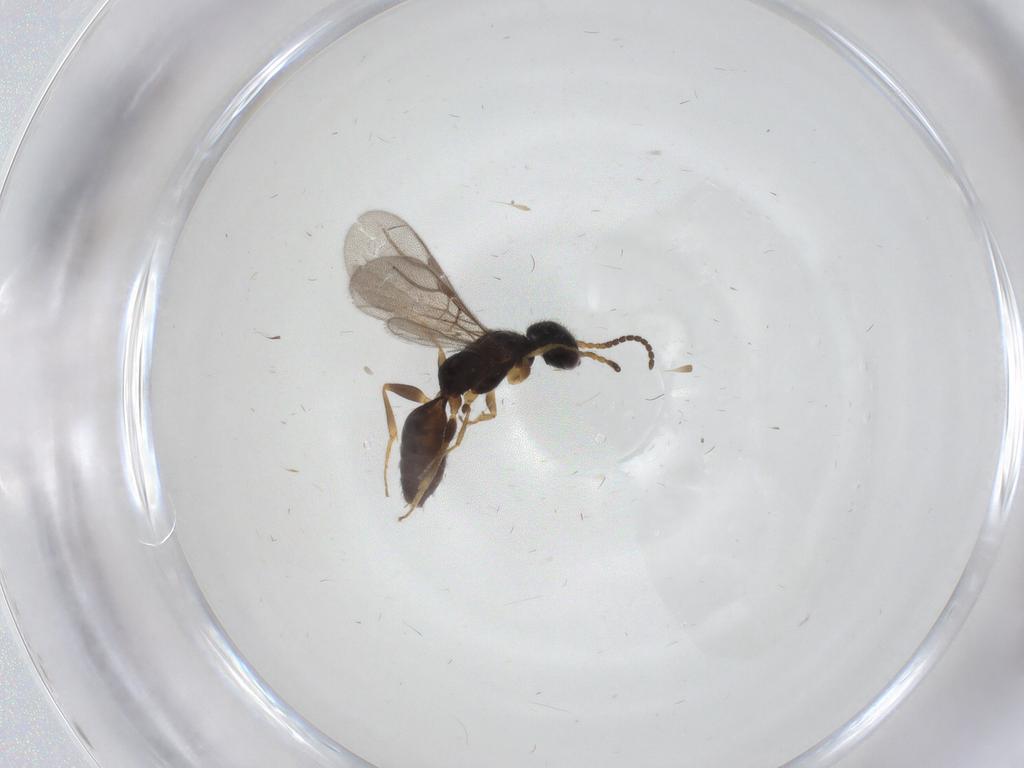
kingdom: Animalia
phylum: Arthropoda
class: Insecta
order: Hymenoptera
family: Bethylidae
